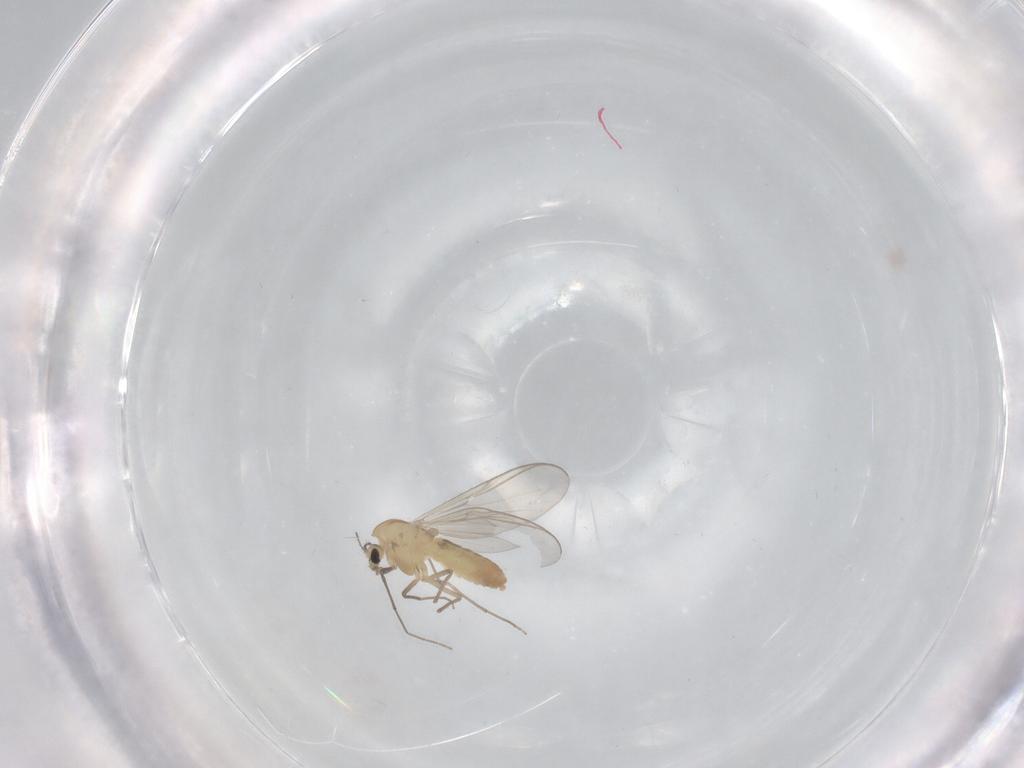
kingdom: Animalia
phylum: Arthropoda
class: Insecta
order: Diptera
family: Chironomidae
